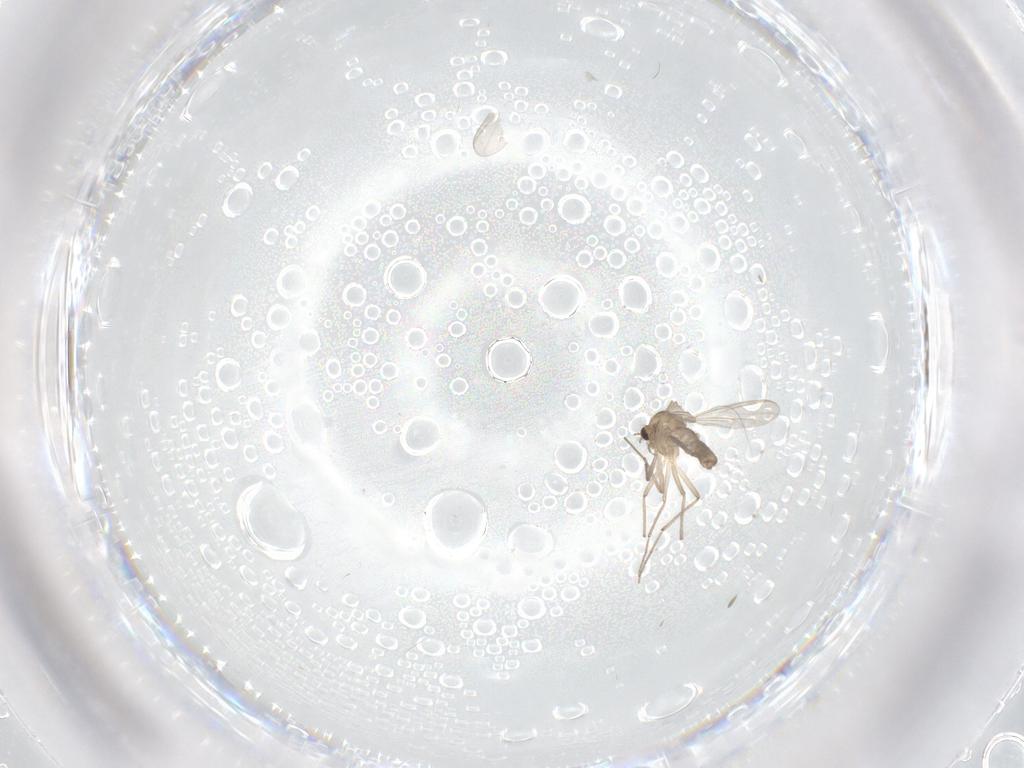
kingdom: Animalia
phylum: Arthropoda
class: Insecta
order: Diptera
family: Chironomidae
